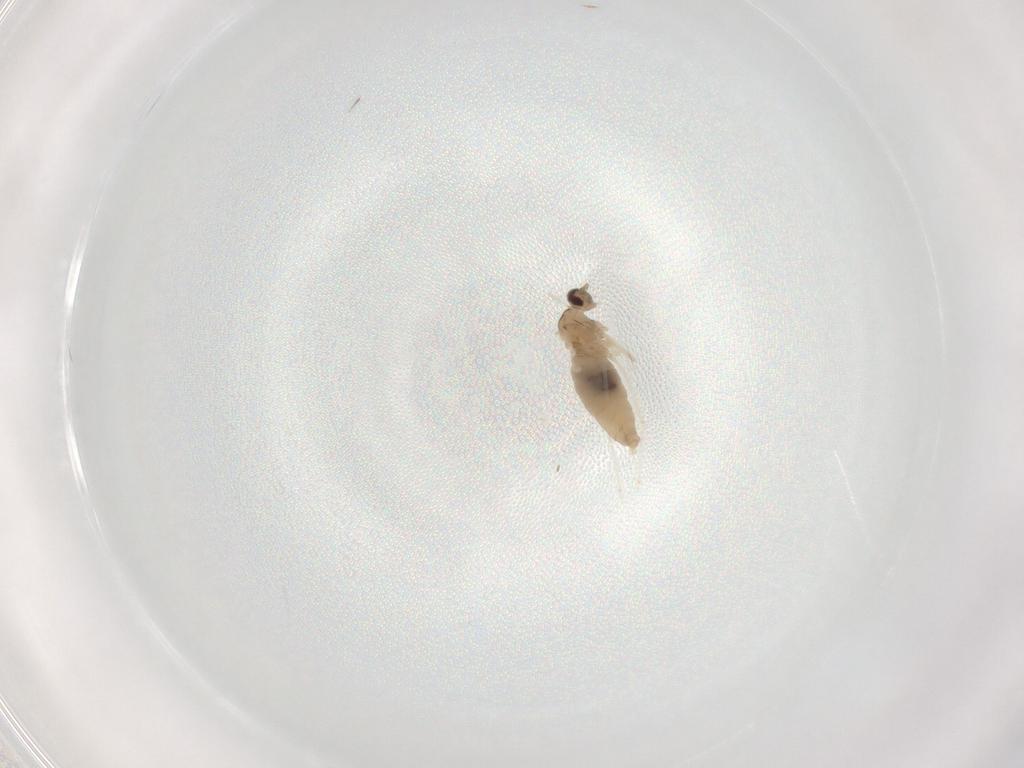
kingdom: Animalia
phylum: Arthropoda
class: Insecta
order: Diptera
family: Cecidomyiidae
